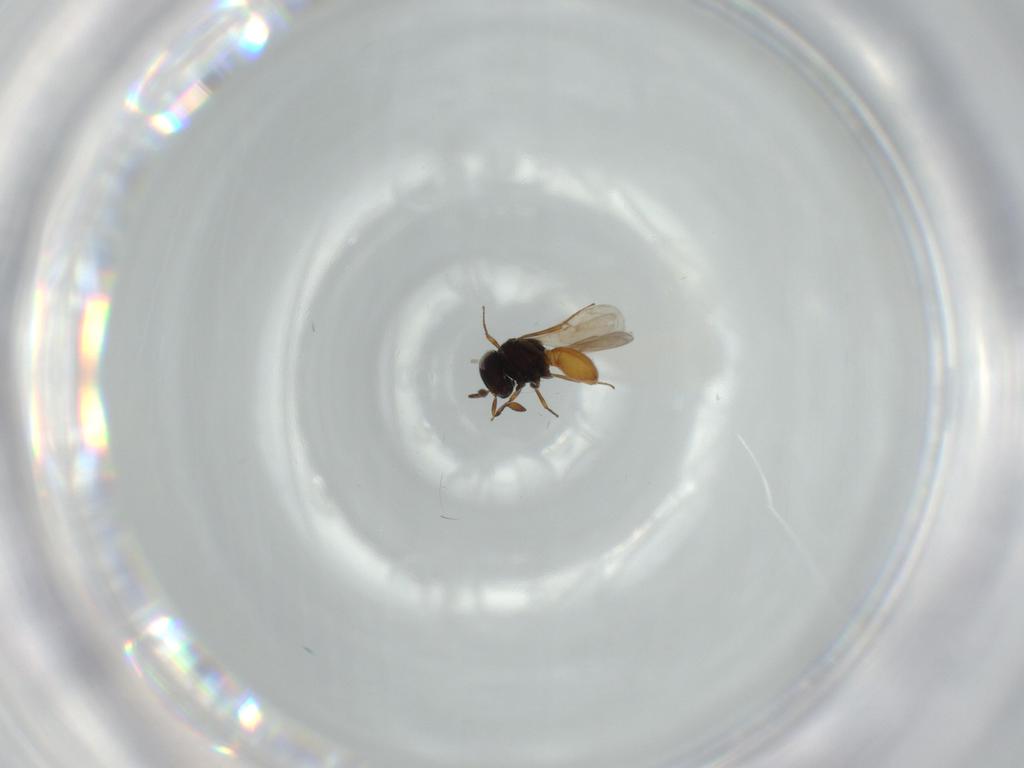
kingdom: Animalia
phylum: Arthropoda
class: Insecta
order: Hymenoptera
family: Scelionidae
